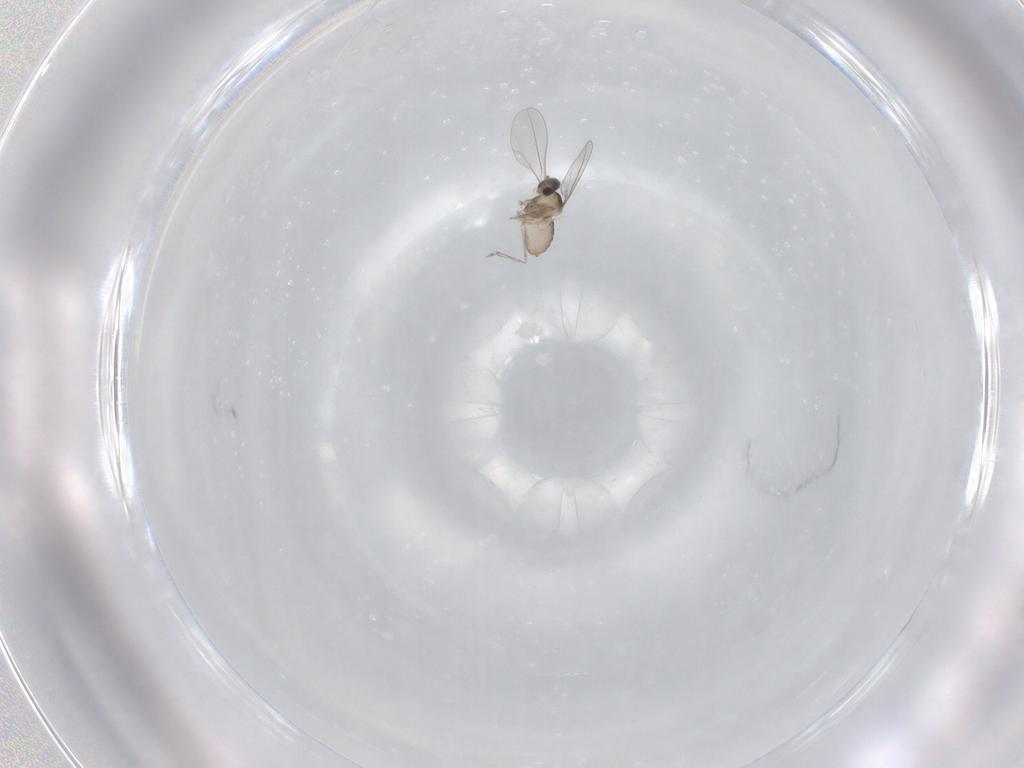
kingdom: Animalia
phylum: Arthropoda
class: Insecta
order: Diptera
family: Cecidomyiidae
